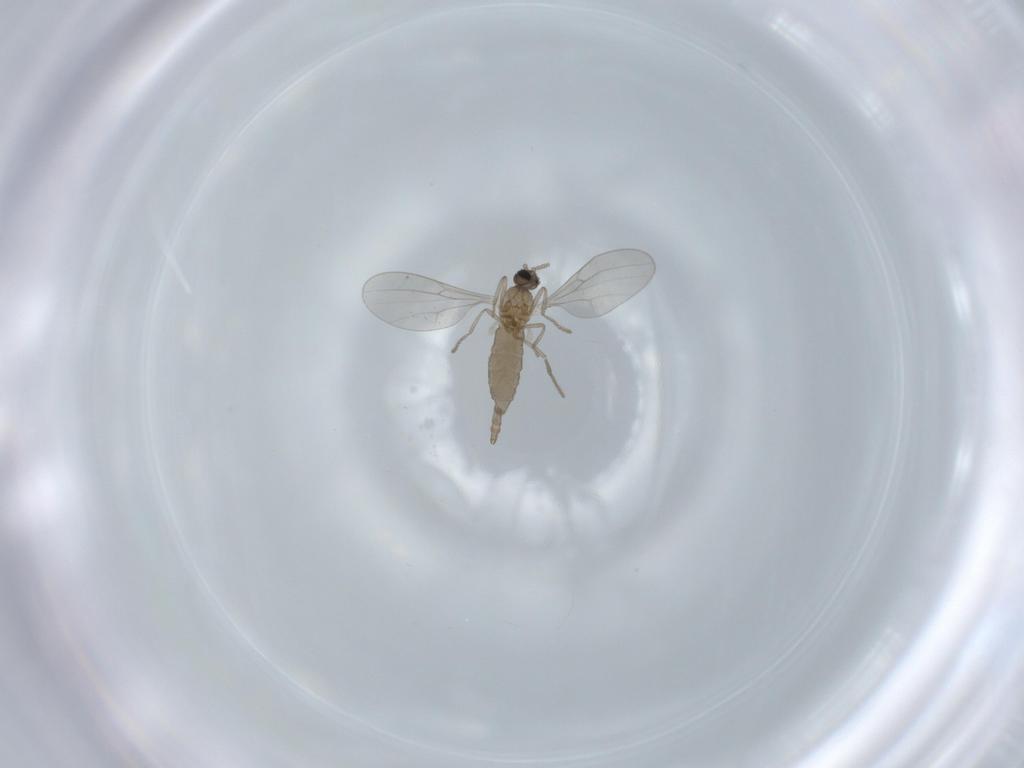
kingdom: Animalia
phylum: Arthropoda
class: Insecta
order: Diptera
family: Cecidomyiidae
